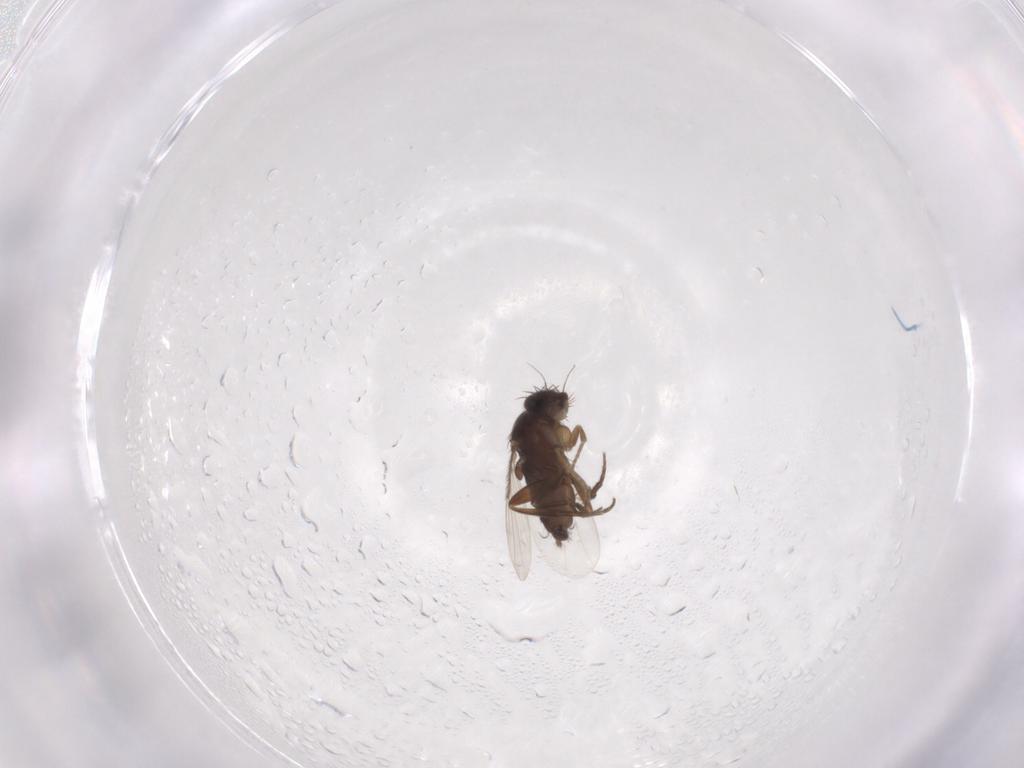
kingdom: Animalia
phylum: Arthropoda
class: Insecta
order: Diptera
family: Phoridae
